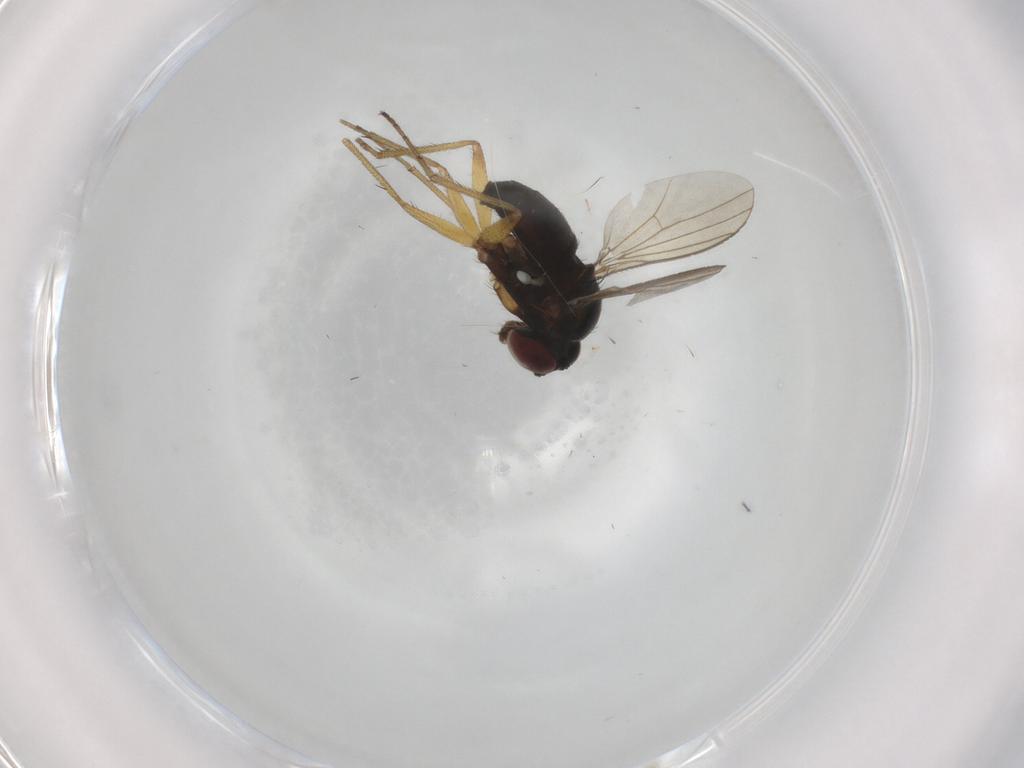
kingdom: Animalia
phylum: Arthropoda
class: Insecta
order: Diptera
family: Dolichopodidae
